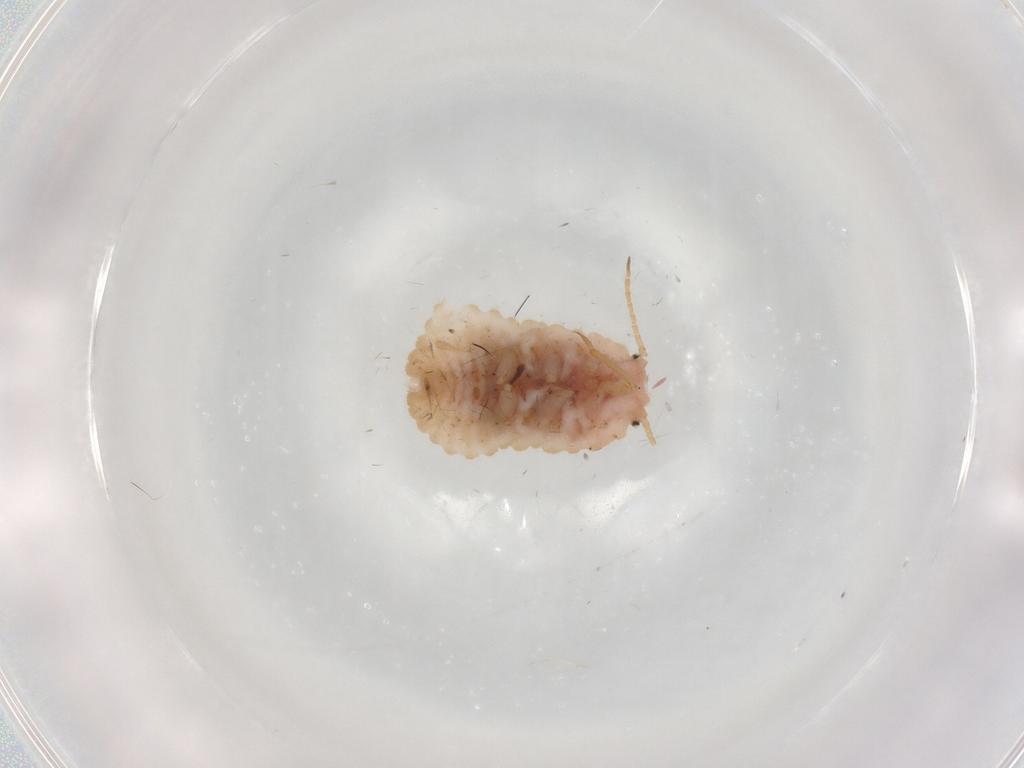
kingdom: Animalia
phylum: Arthropoda
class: Insecta
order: Hemiptera
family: Coccoidea_incertae_sedis
